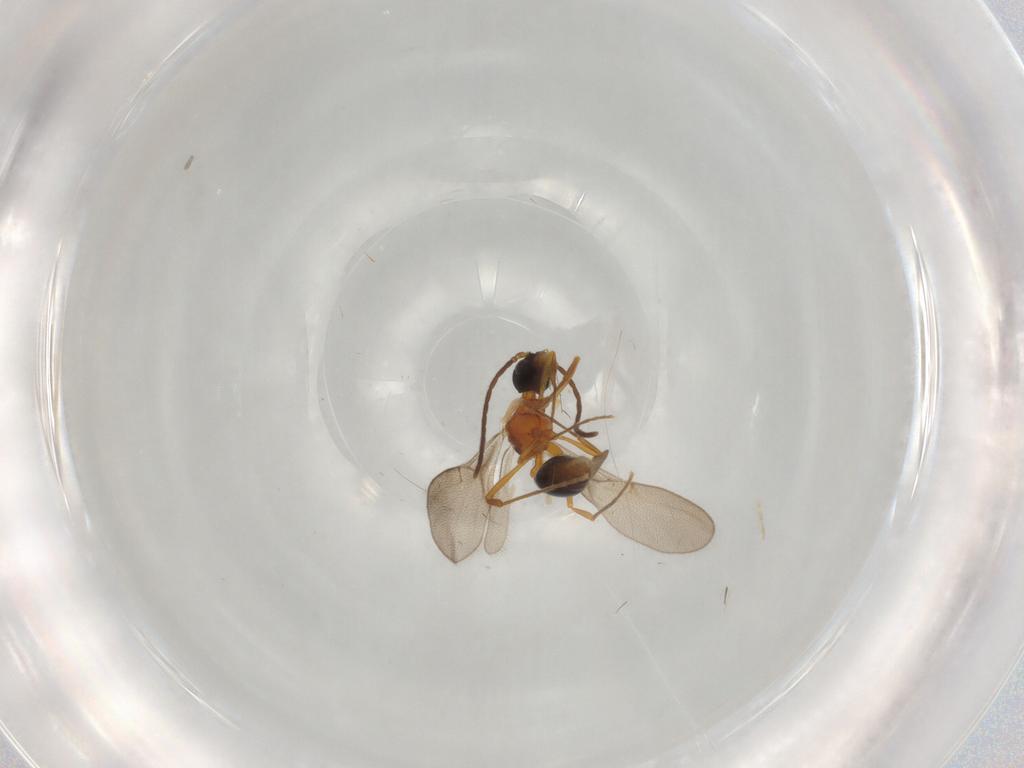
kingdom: Animalia
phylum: Arthropoda
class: Insecta
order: Hymenoptera
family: Formicidae
